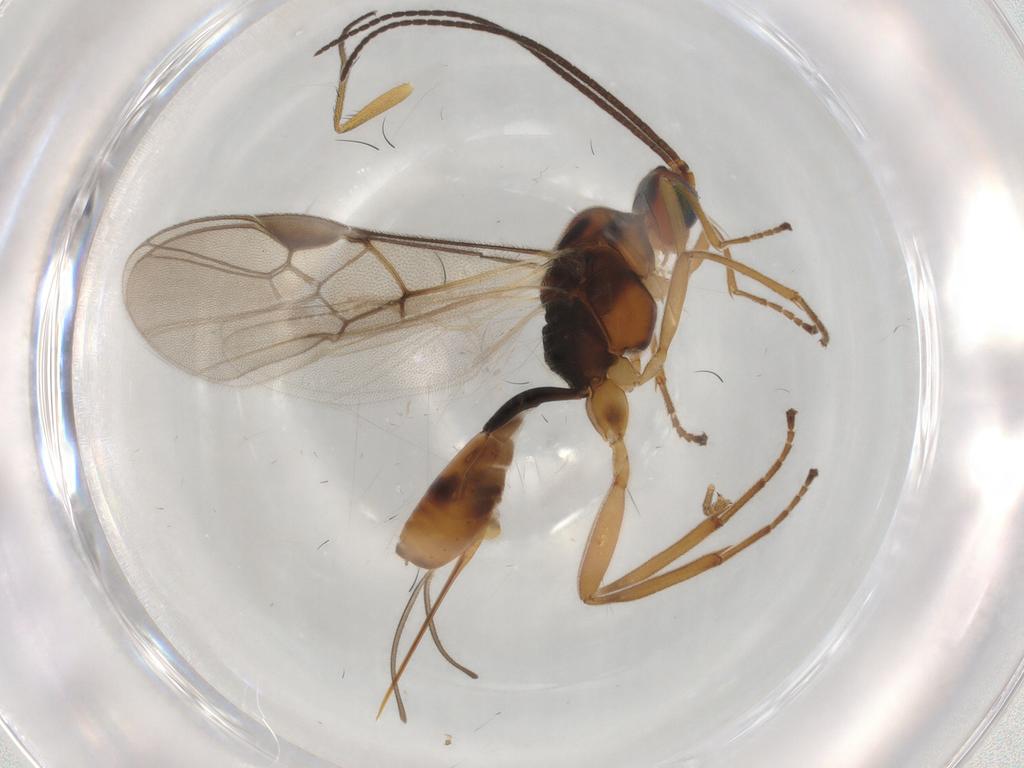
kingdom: Animalia
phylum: Arthropoda
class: Insecta
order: Hymenoptera
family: Braconidae
